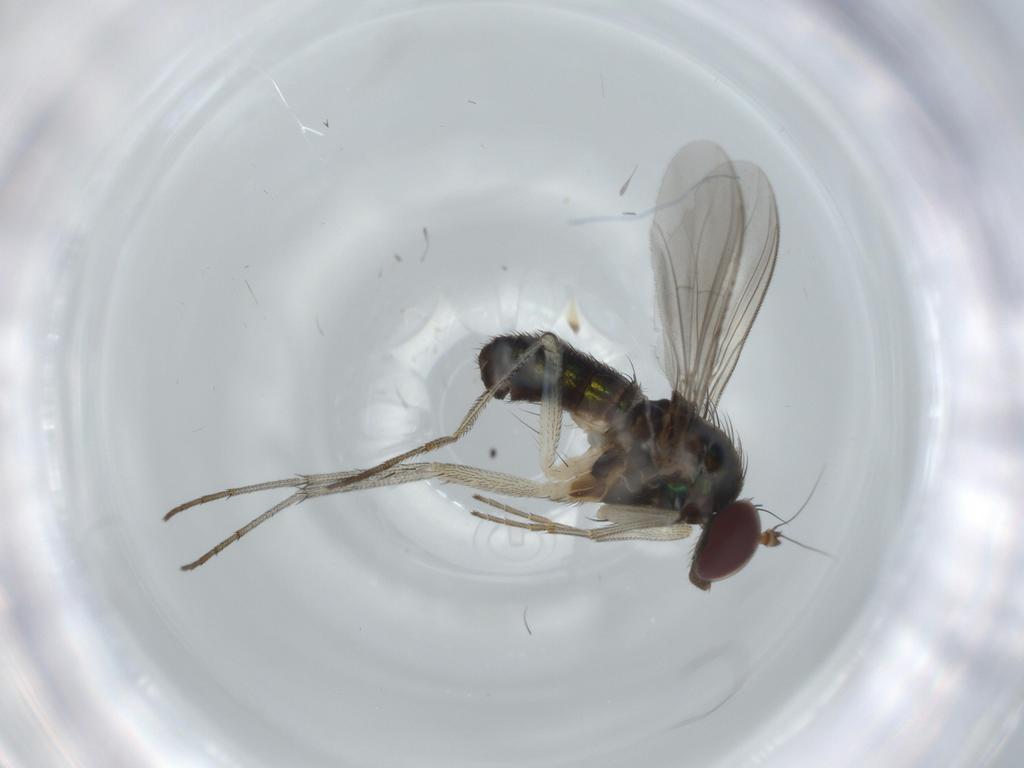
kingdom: Animalia
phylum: Arthropoda
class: Insecta
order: Diptera
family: Dolichopodidae
